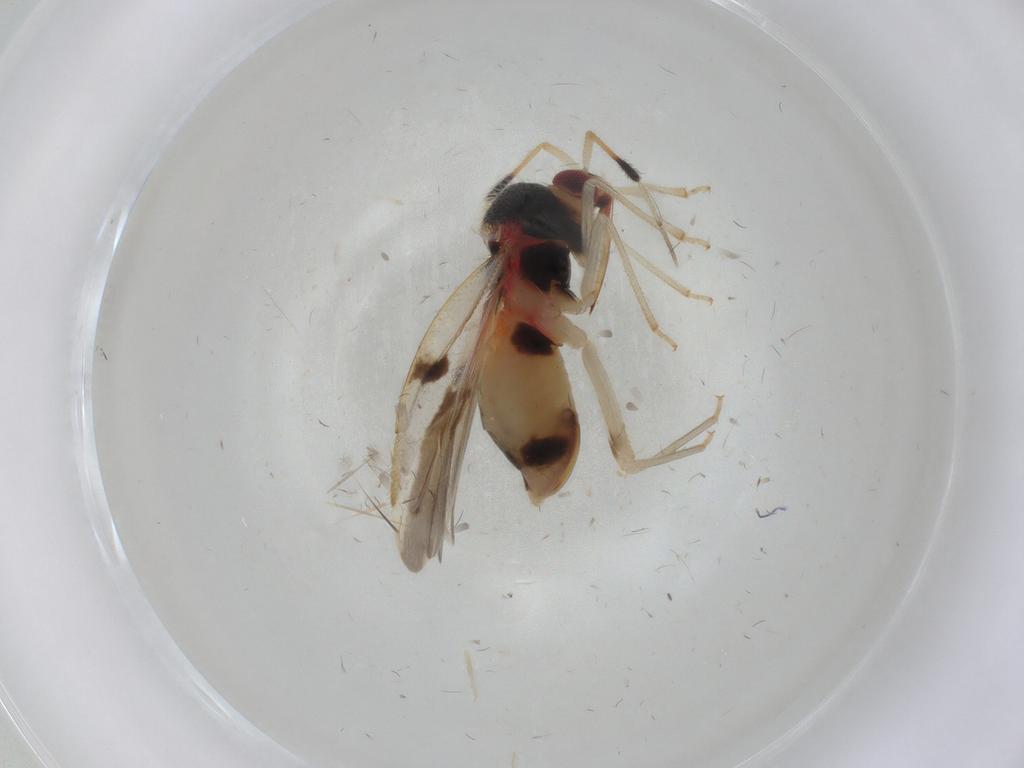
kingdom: Animalia
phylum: Arthropoda
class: Insecta
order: Hemiptera
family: Miridae
